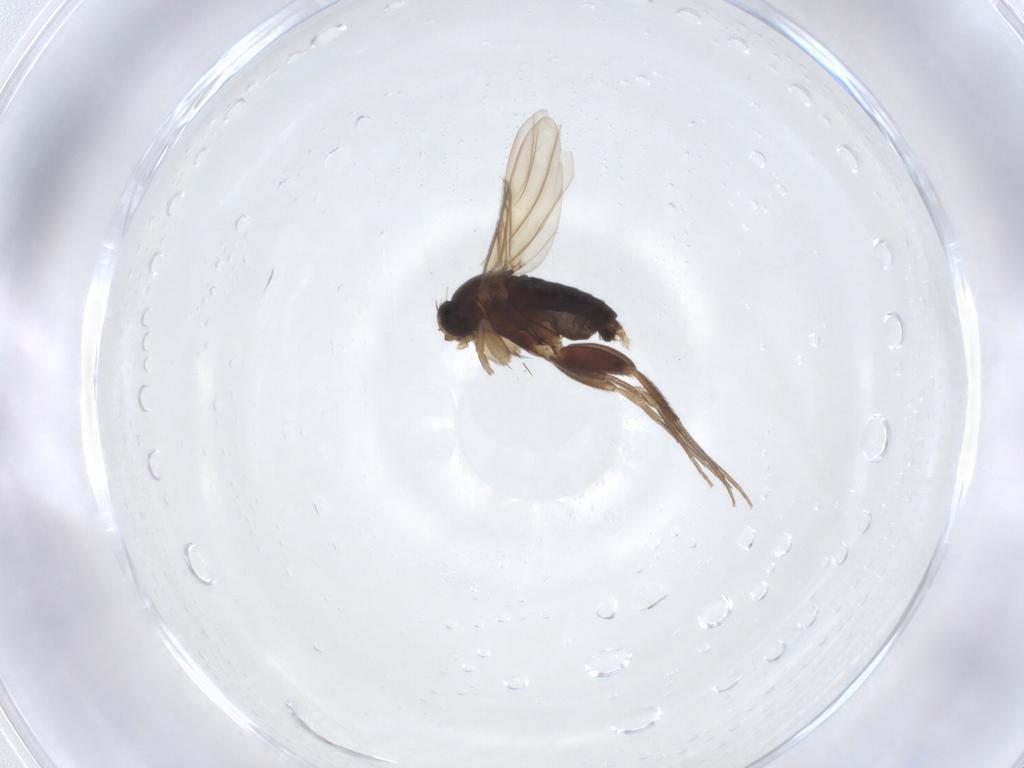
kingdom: Animalia
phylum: Arthropoda
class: Insecta
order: Diptera
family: Phoridae
